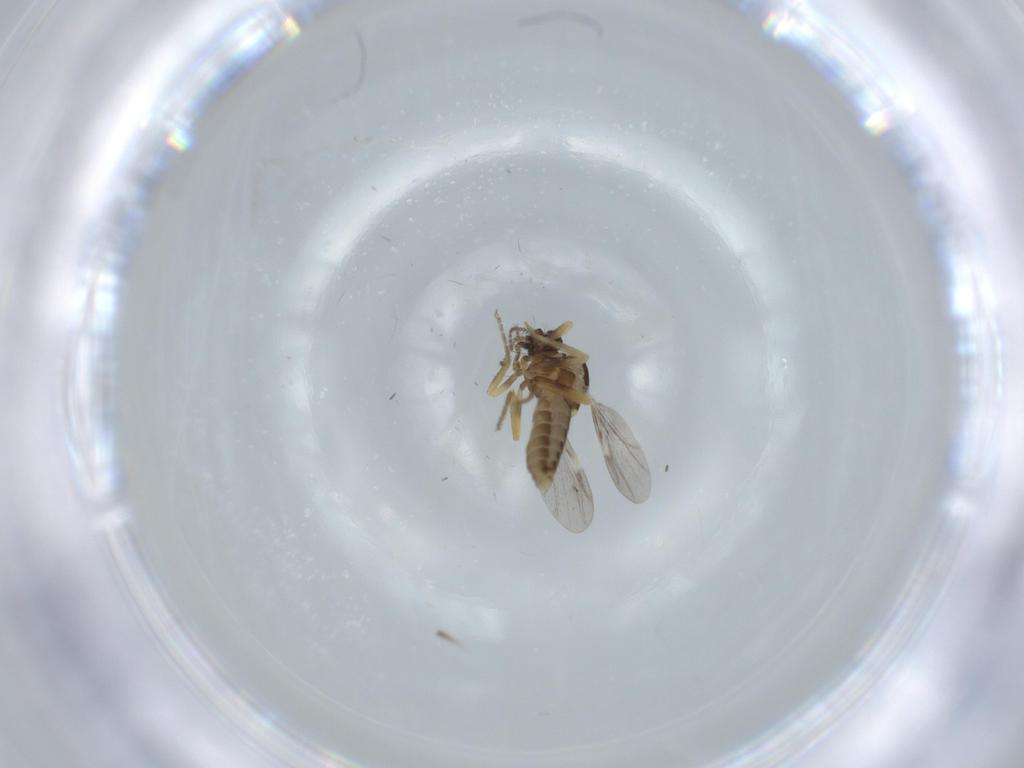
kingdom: Animalia
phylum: Arthropoda
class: Insecta
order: Diptera
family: Ceratopogonidae
